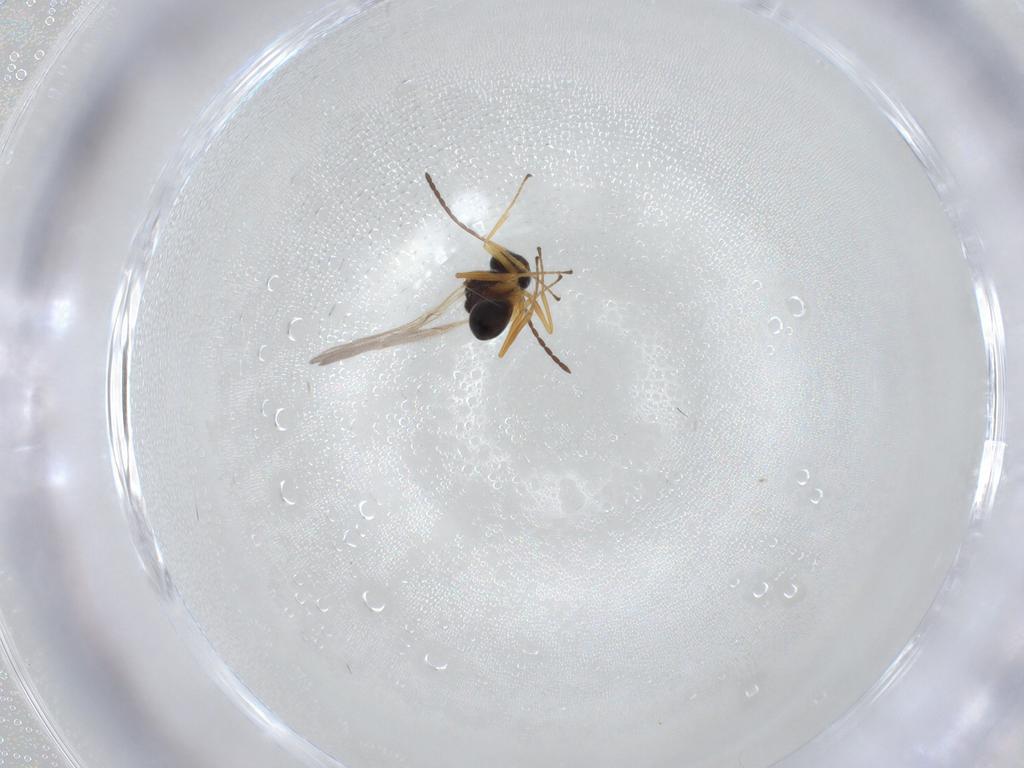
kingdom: Animalia
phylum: Arthropoda
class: Insecta
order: Hymenoptera
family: Figitidae
